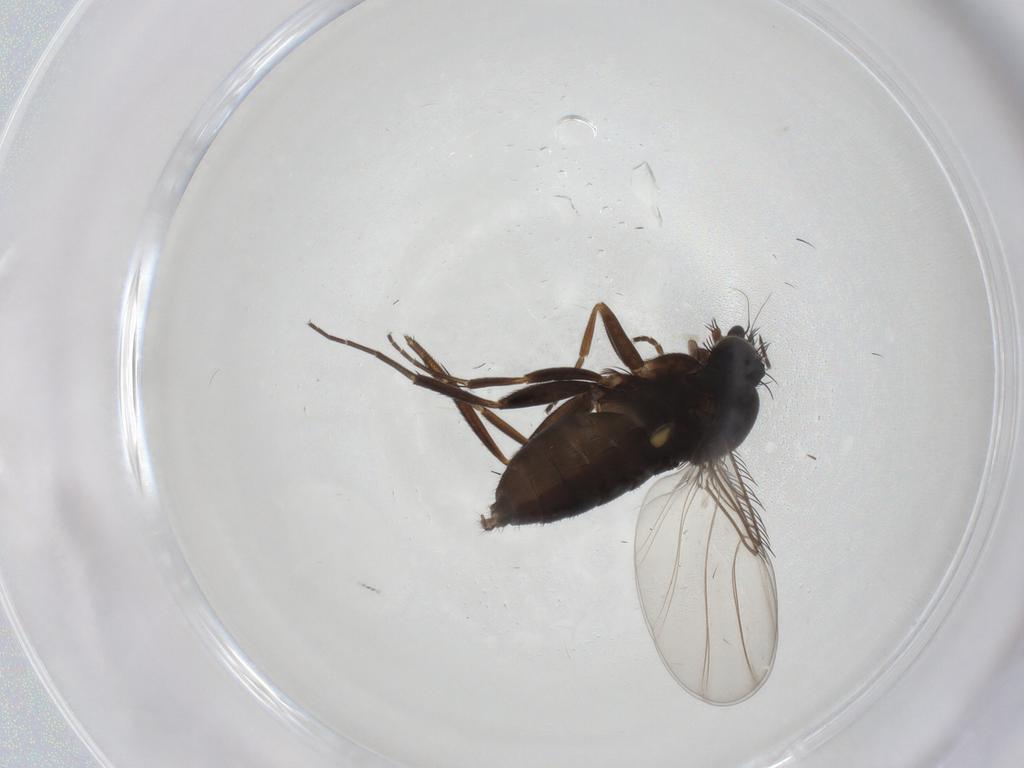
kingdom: Animalia
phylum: Arthropoda
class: Insecta
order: Diptera
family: Phoridae
